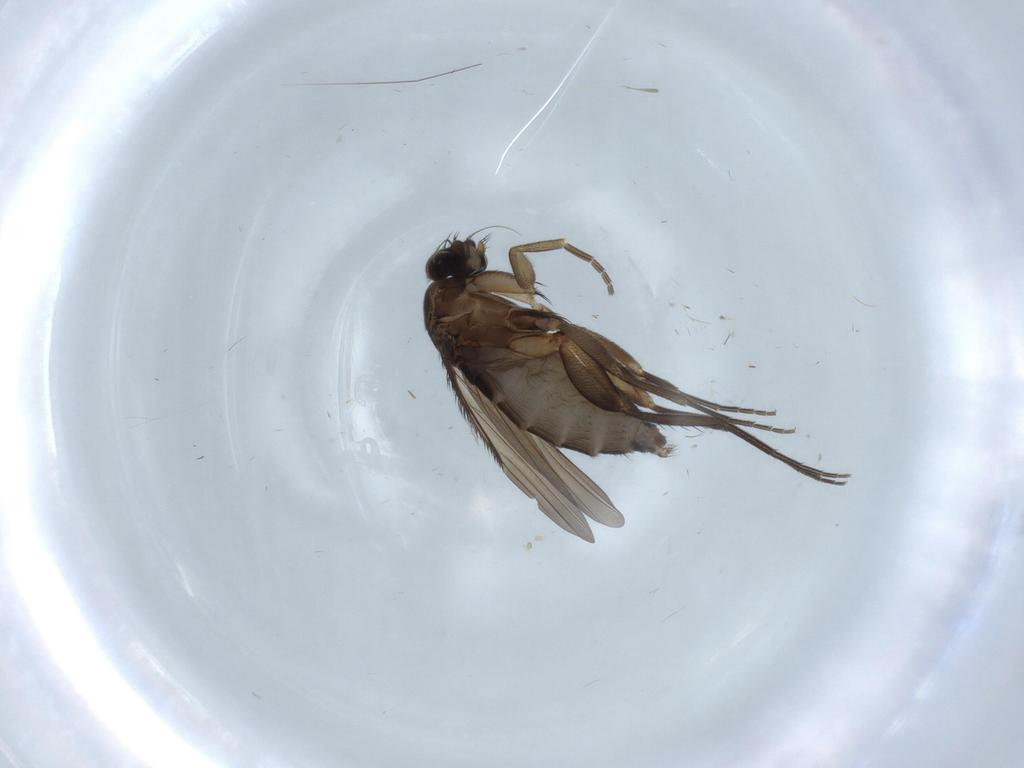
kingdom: Animalia
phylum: Arthropoda
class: Insecta
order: Diptera
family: Phoridae
